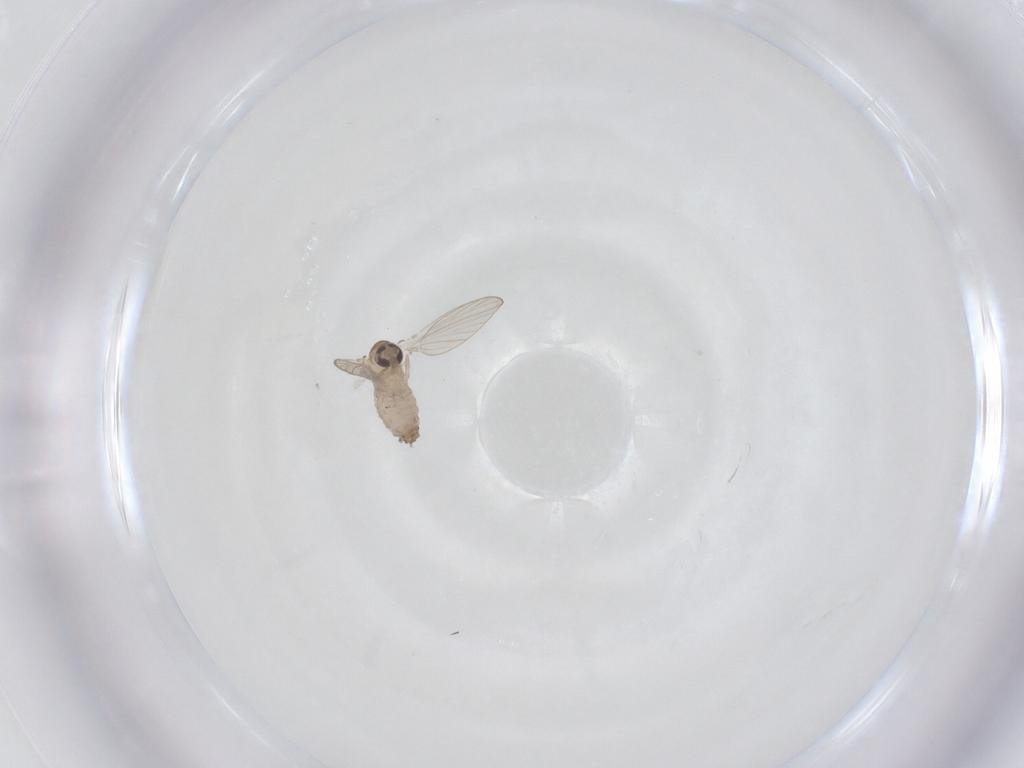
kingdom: Animalia
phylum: Arthropoda
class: Insecta
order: Diptera
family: Psychodidae
